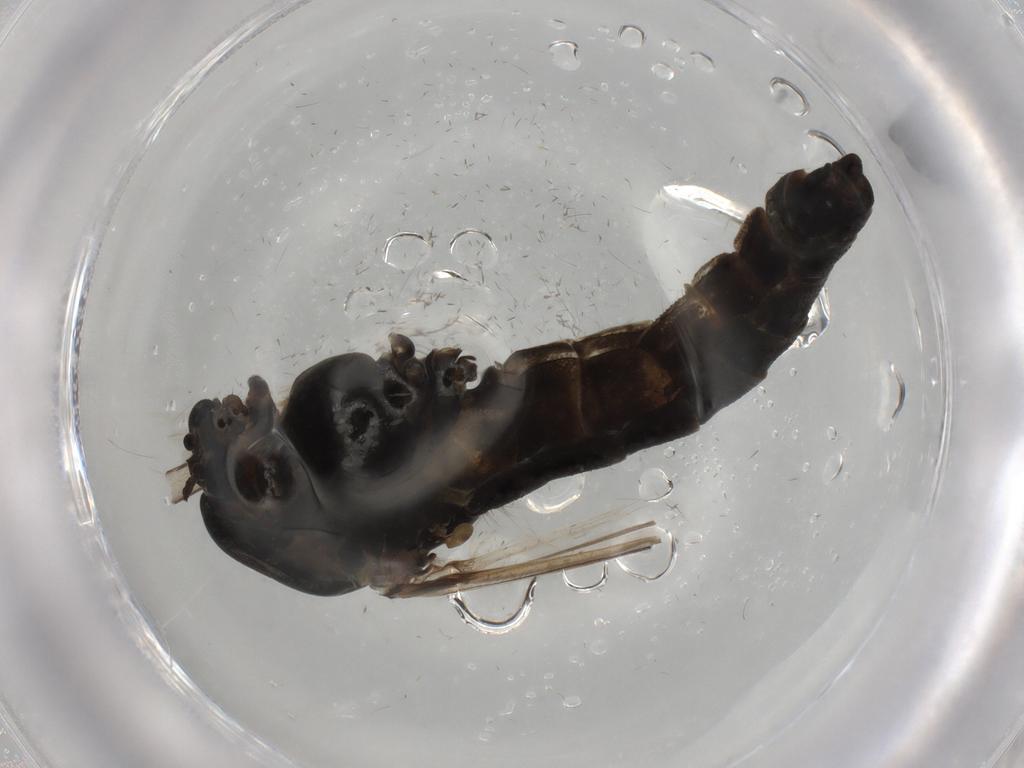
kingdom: Animalia
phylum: Arthropoda
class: Insecta
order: Diptera
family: Chironomidae
